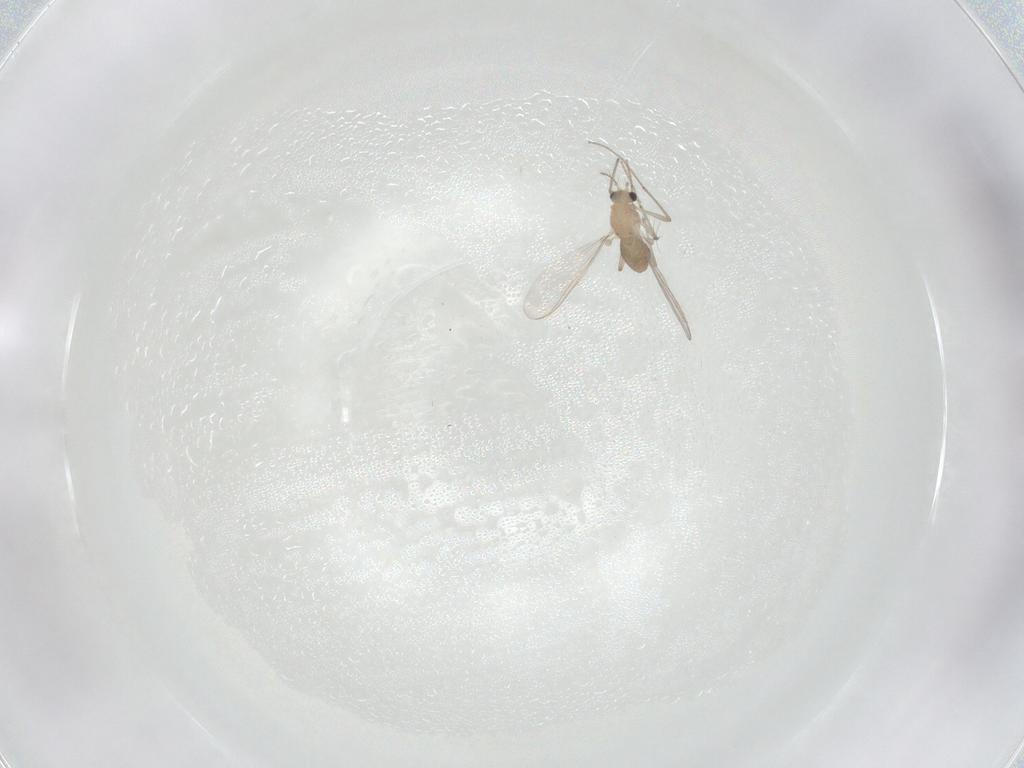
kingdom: Animalia
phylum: Arthropoda
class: Insecta
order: Diptera
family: Chironomidae
